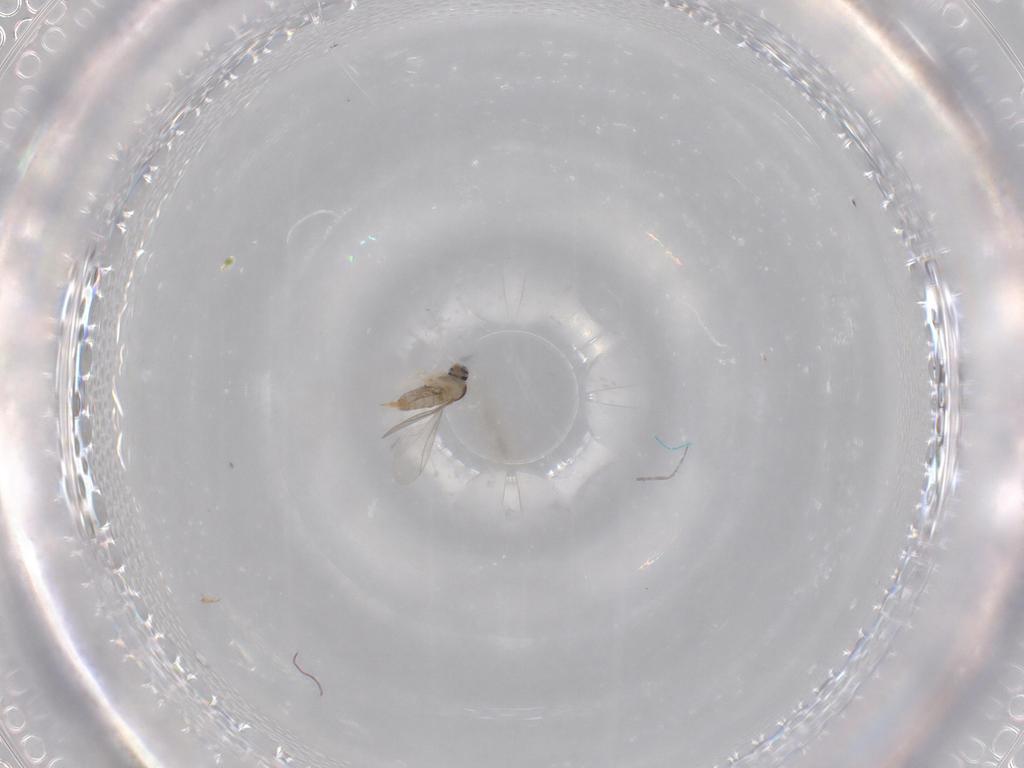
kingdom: Animalia
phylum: Arthropoda
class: Insecta
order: Diptera
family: Cecidomyiidae
